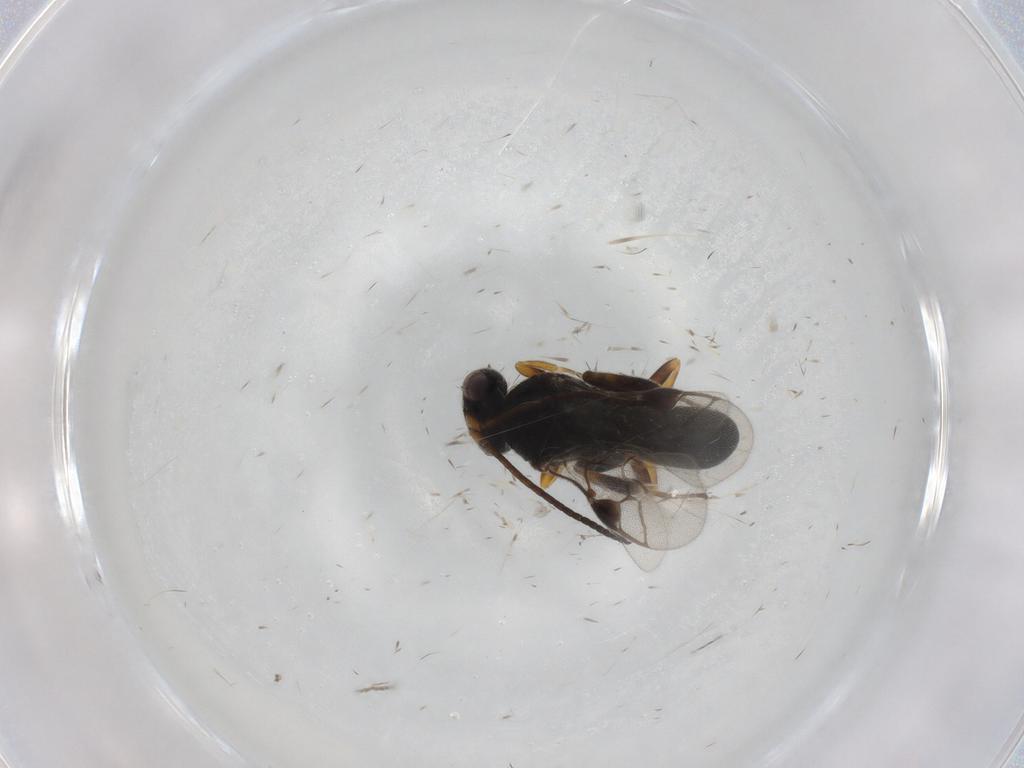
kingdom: Animalia
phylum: Arthropoda
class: Insecta
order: Hymenoptera
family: Braconidae
